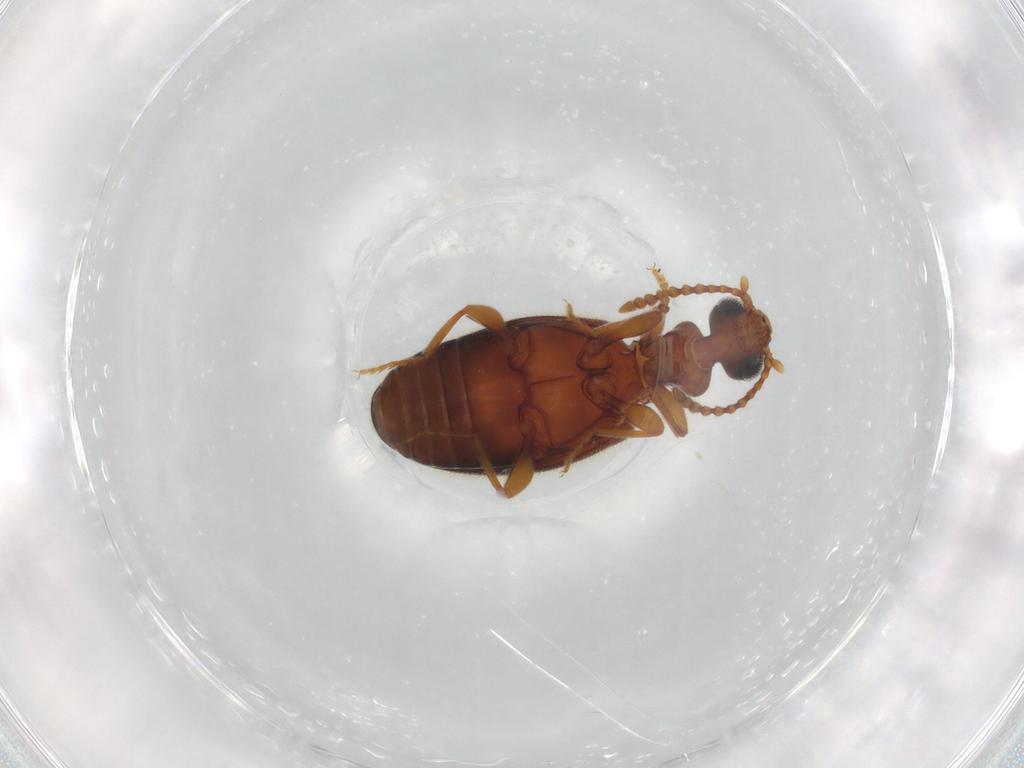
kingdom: Animalia
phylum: Arthropoda
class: Insecta
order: Coleoptera
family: Anthicidae
